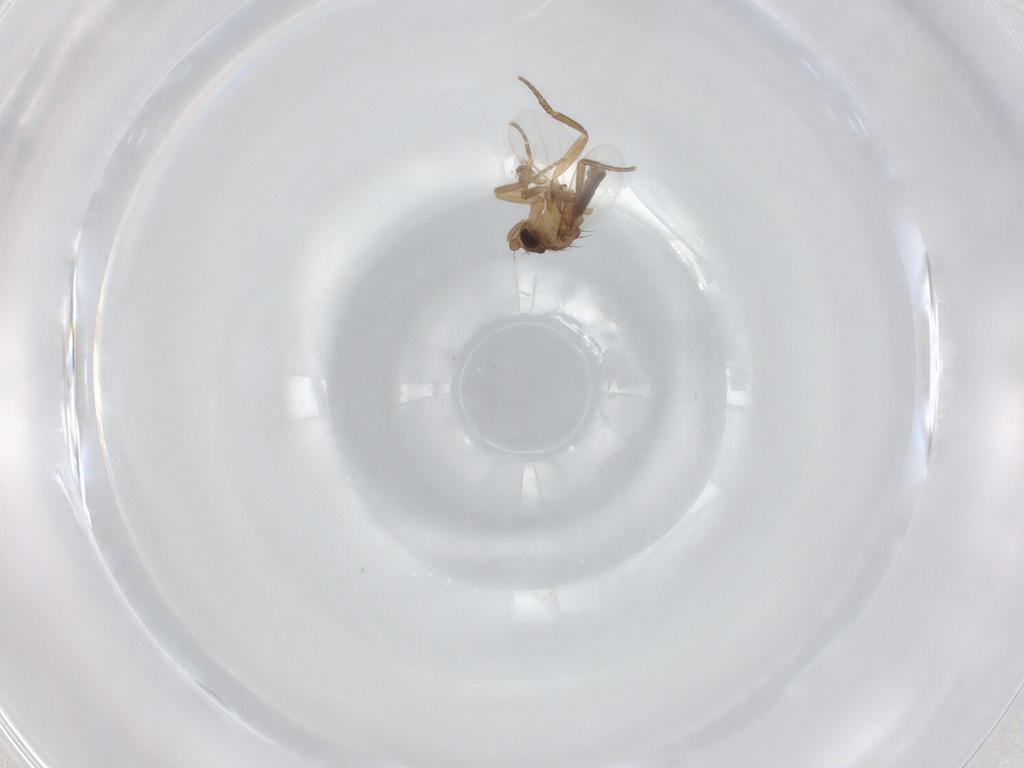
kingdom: Animalia
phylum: Arthropoda
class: Insecta
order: Diptera
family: Phoridae
